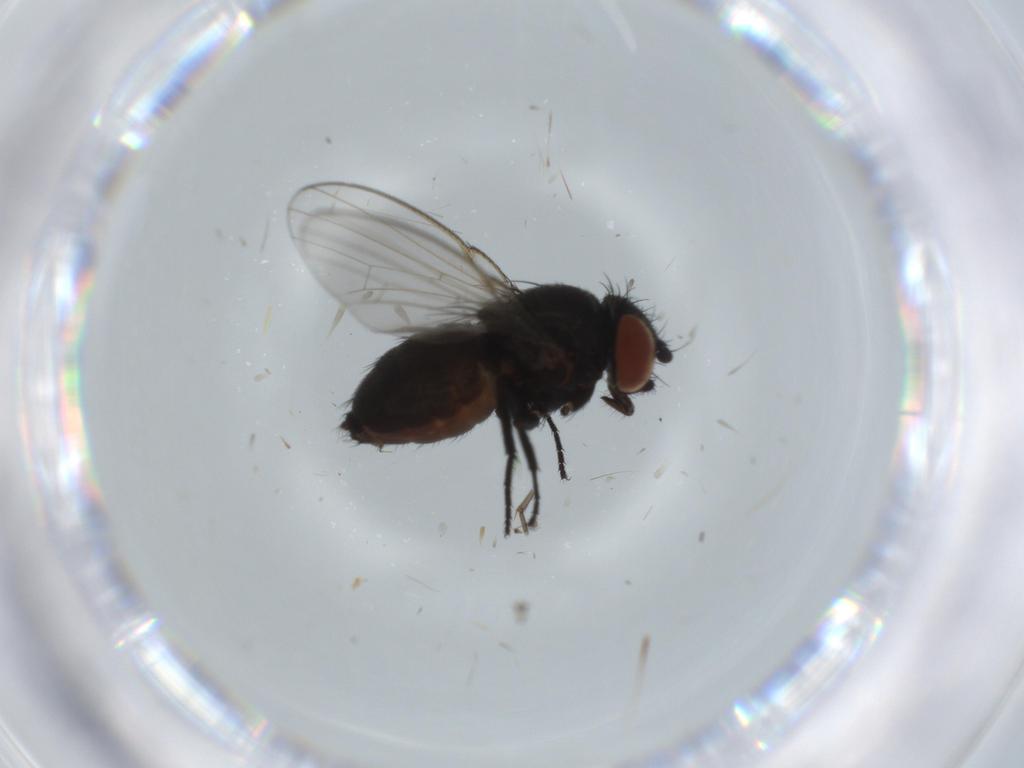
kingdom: Animalia
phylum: Arthropoda
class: Insecta
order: Diptera
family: Milichiidae
